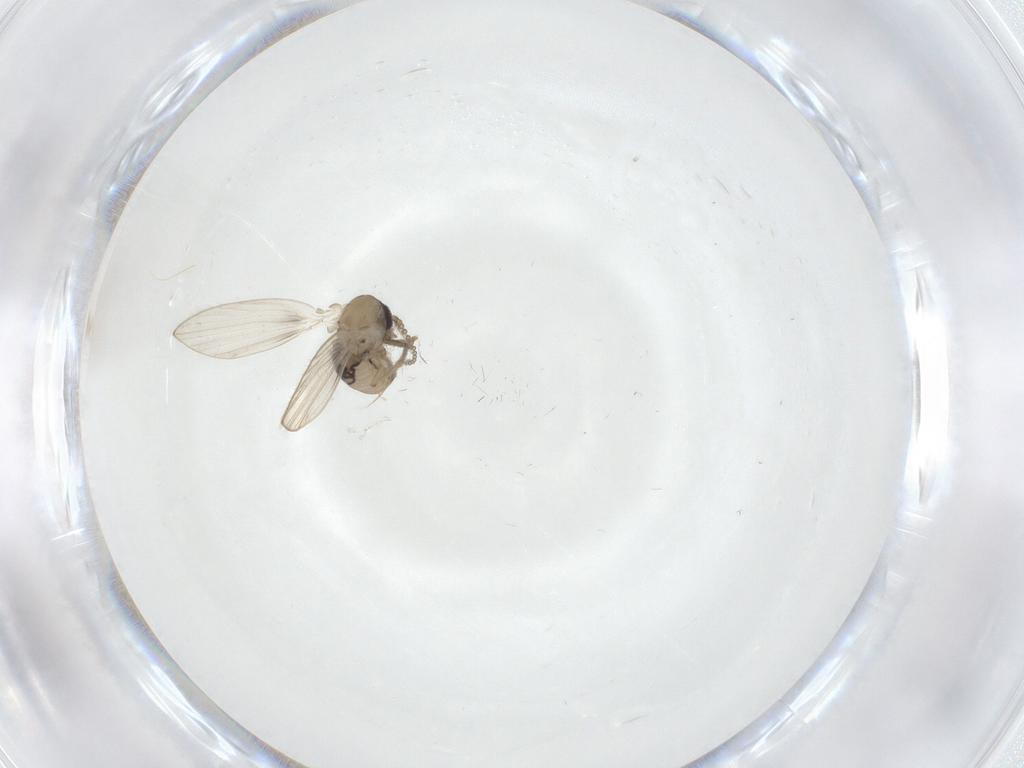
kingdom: Animalia
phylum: Arthropoda
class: Insecta
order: Diptera
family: Psychodidae
